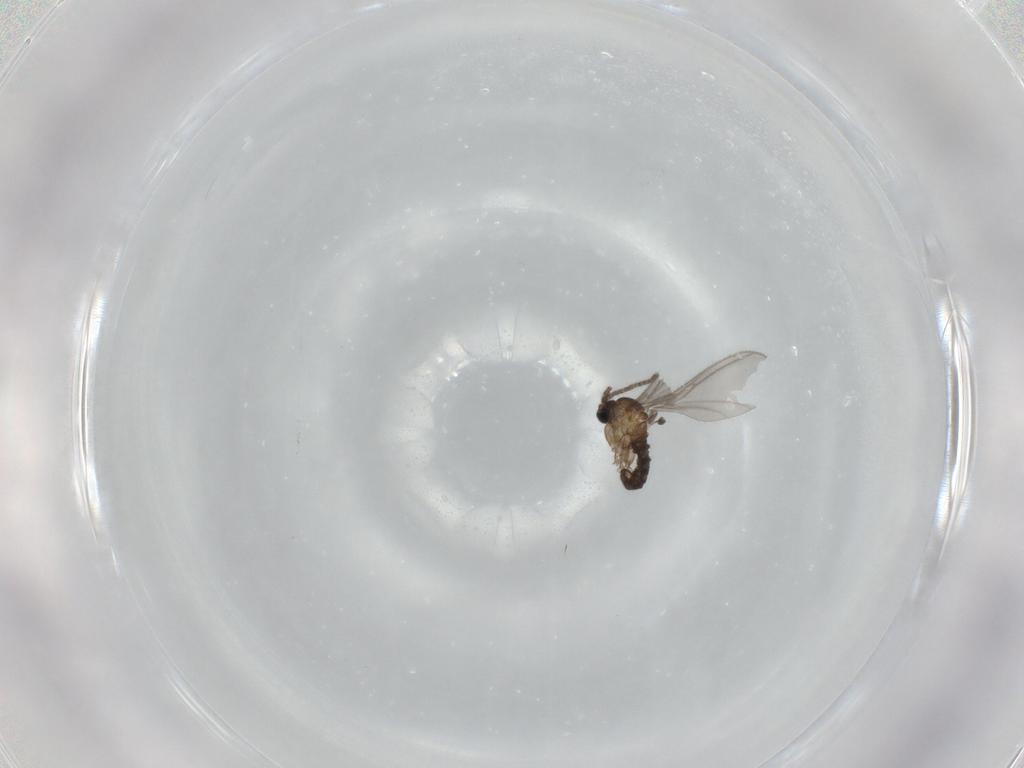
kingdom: Animalia
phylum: Arthropoda
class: Insecta
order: Diptera
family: Sciaridae
